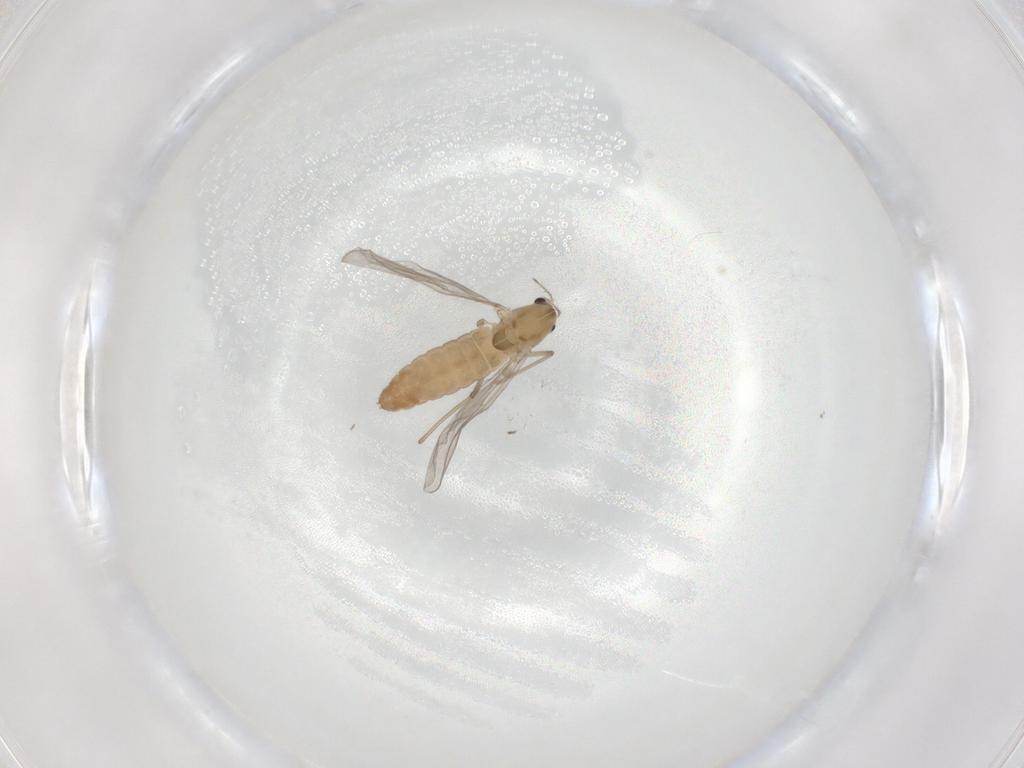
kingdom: Animalia
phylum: Arthropoda
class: Insecta
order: Diptera
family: Chironomidae
